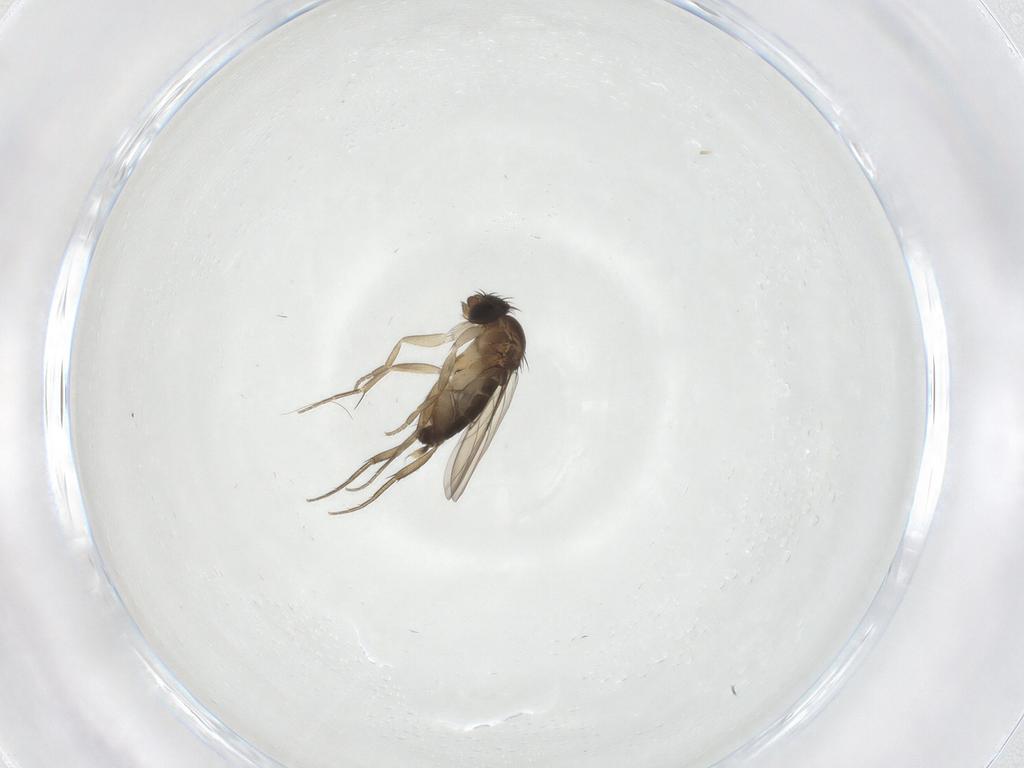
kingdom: Animalia
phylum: Arthropoda
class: Insecta
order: Diptera
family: Phoridae
